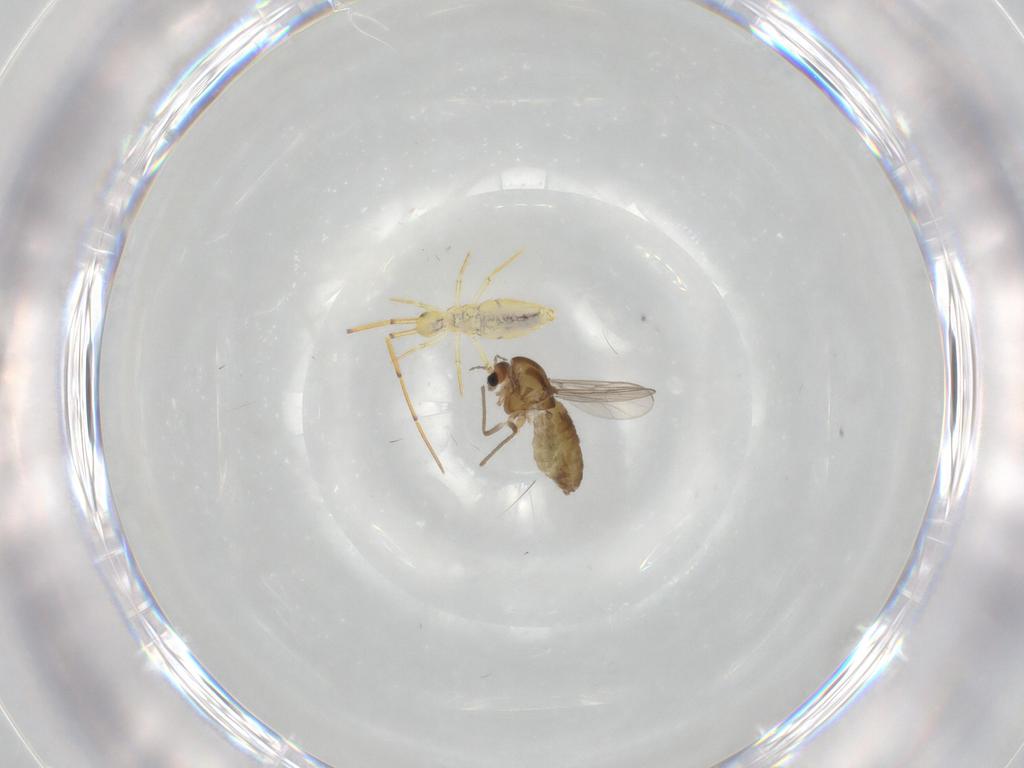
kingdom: Animalia
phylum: Arthropoda
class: Insecta
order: Diptera
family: Chironomidae
